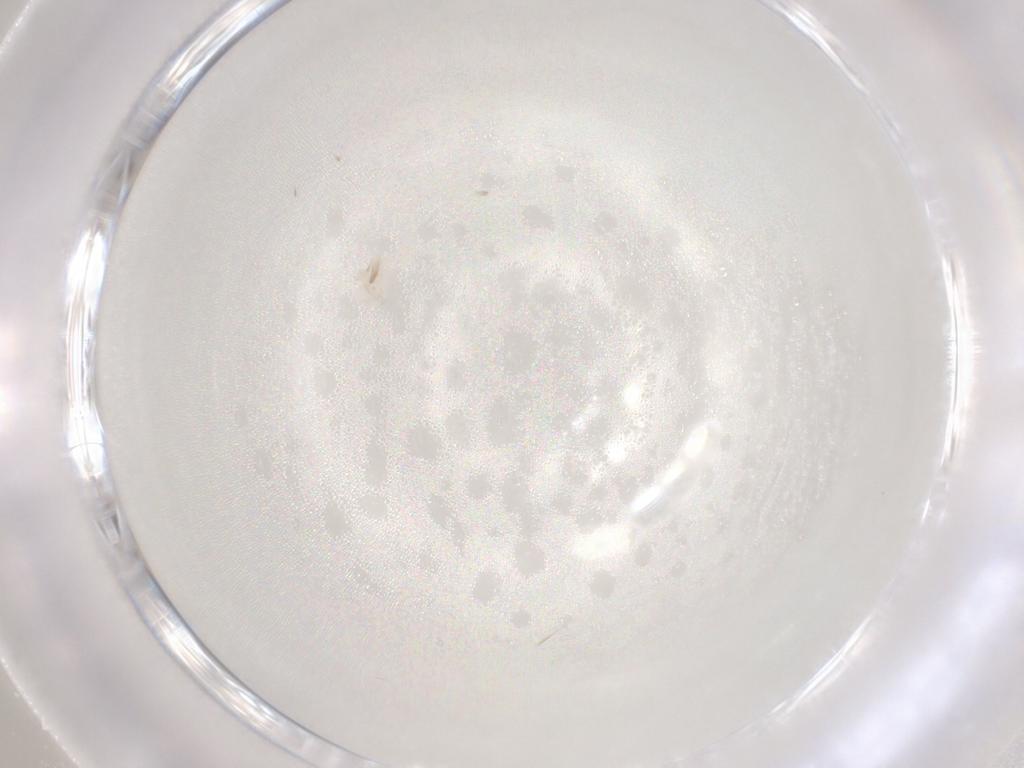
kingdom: Animalia
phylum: Arthropoda
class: Arachnida
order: Trombidiformes
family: Anystidae
